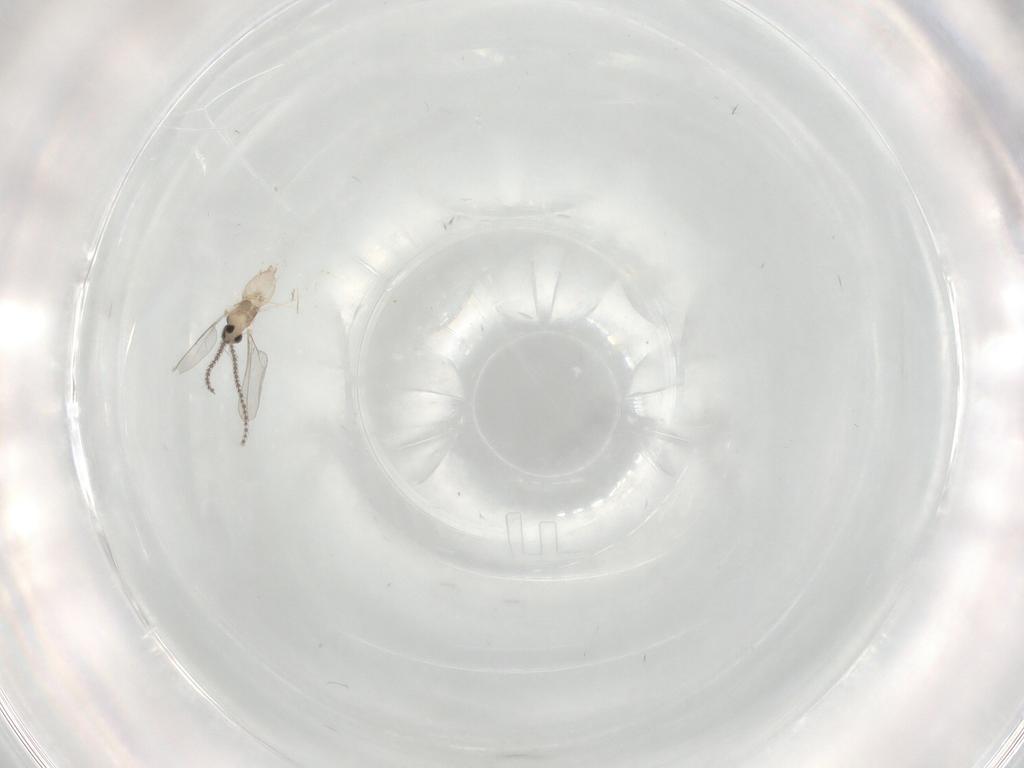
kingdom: Animalia
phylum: Arthropoda
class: Insecta
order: Diptera
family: Cecidomyiidae
